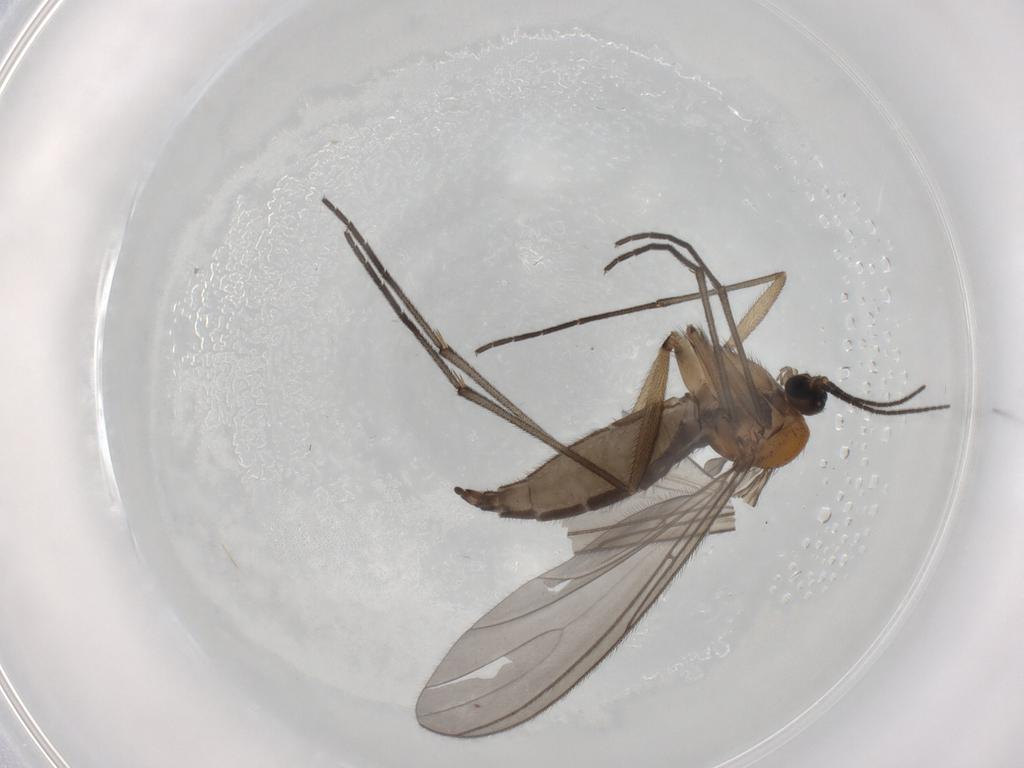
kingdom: Animalia
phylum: Arthropoda
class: Insecta
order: Diptera
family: Sciaridae
